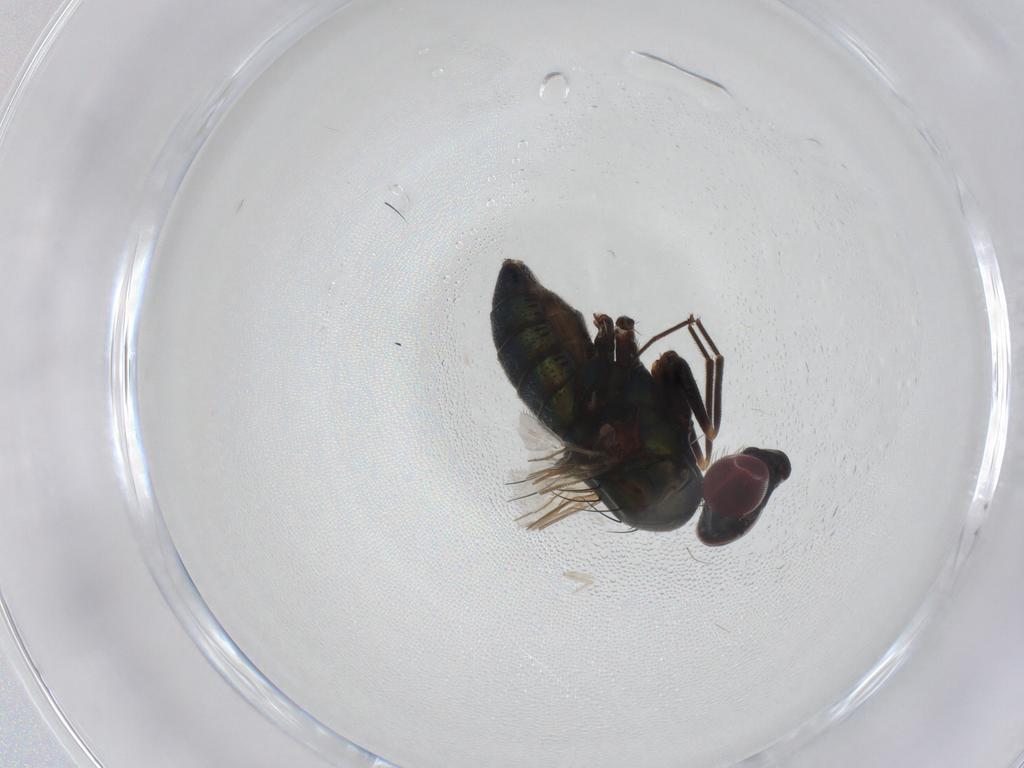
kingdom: Animalia
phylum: Arthropoda
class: Insecta
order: Diptera
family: Dolichopodidae
